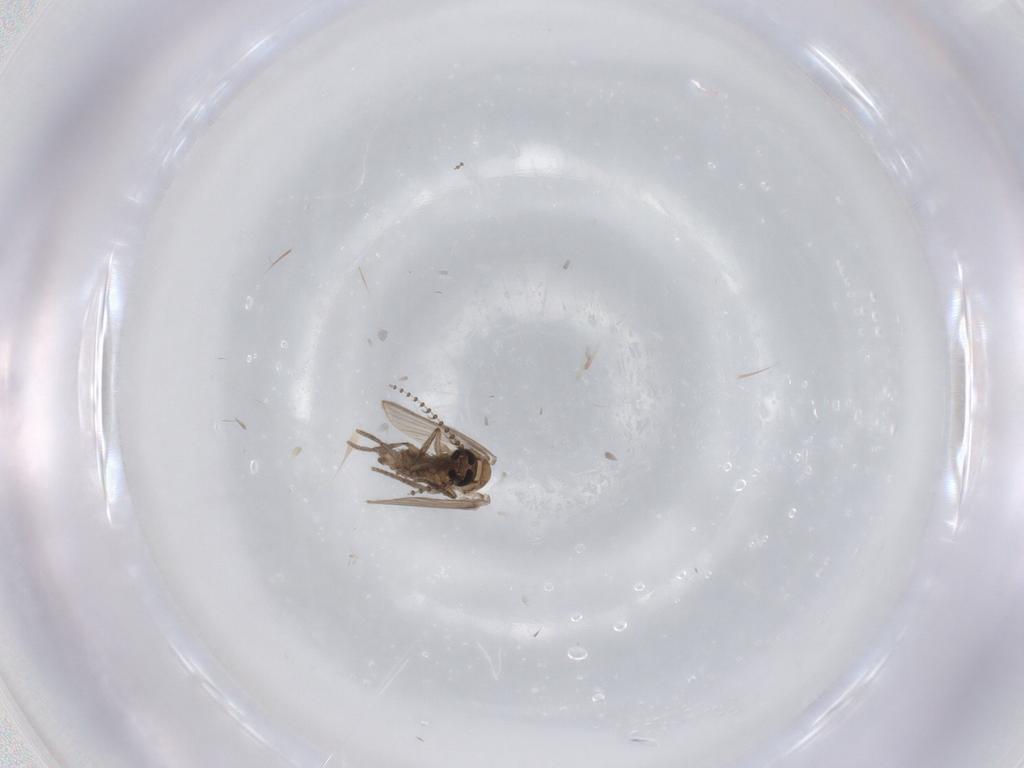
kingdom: Animalia
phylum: Arthropoda
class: Insecta
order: Diptera
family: Psychodidae
